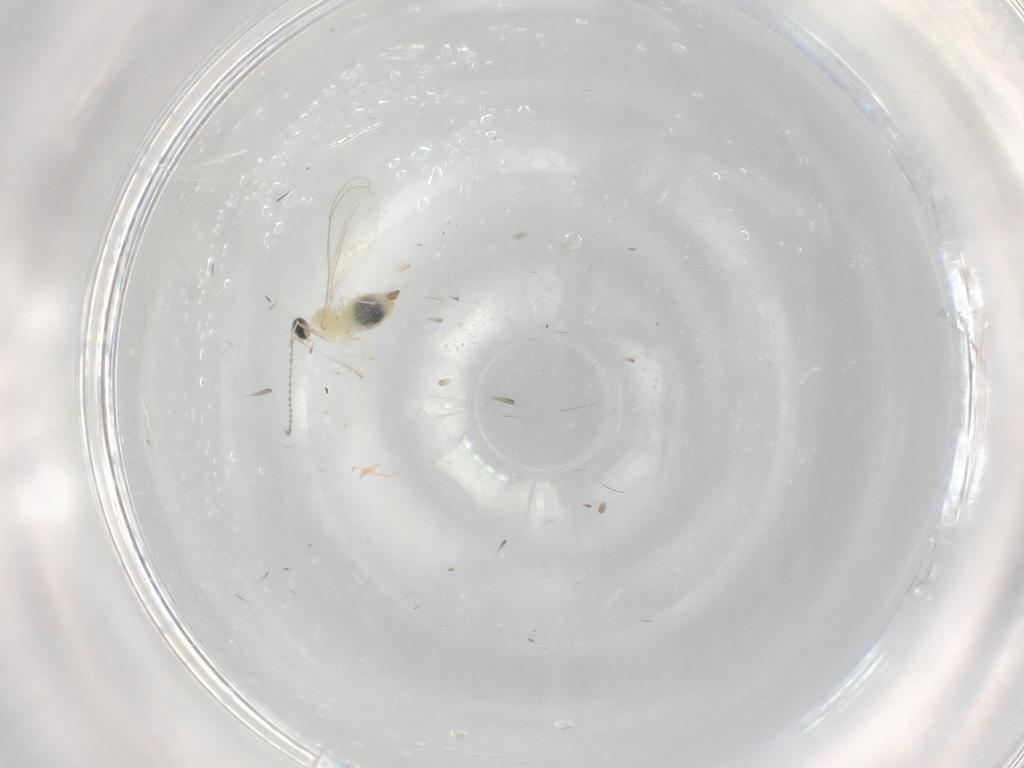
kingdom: Animalia
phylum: Arthropoda
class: Insecta
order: Diptera
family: Cecidomyiidae
